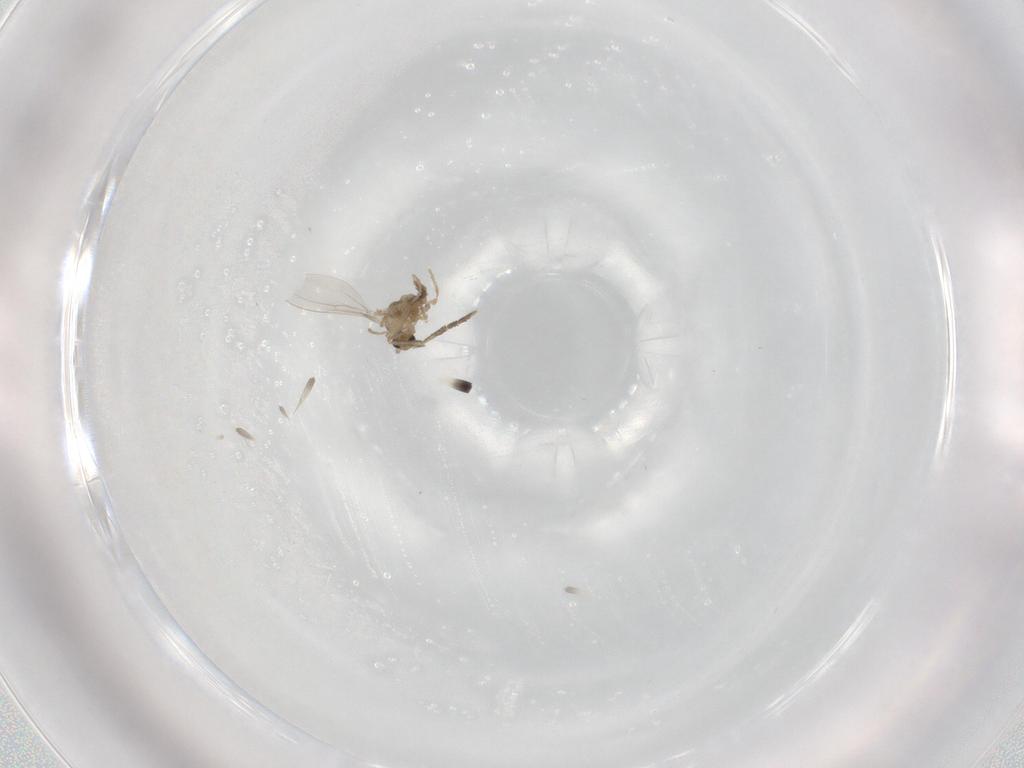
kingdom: Animalia
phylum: Arthropoda
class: Insecta
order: Diptera
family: Cecidomyiidae
